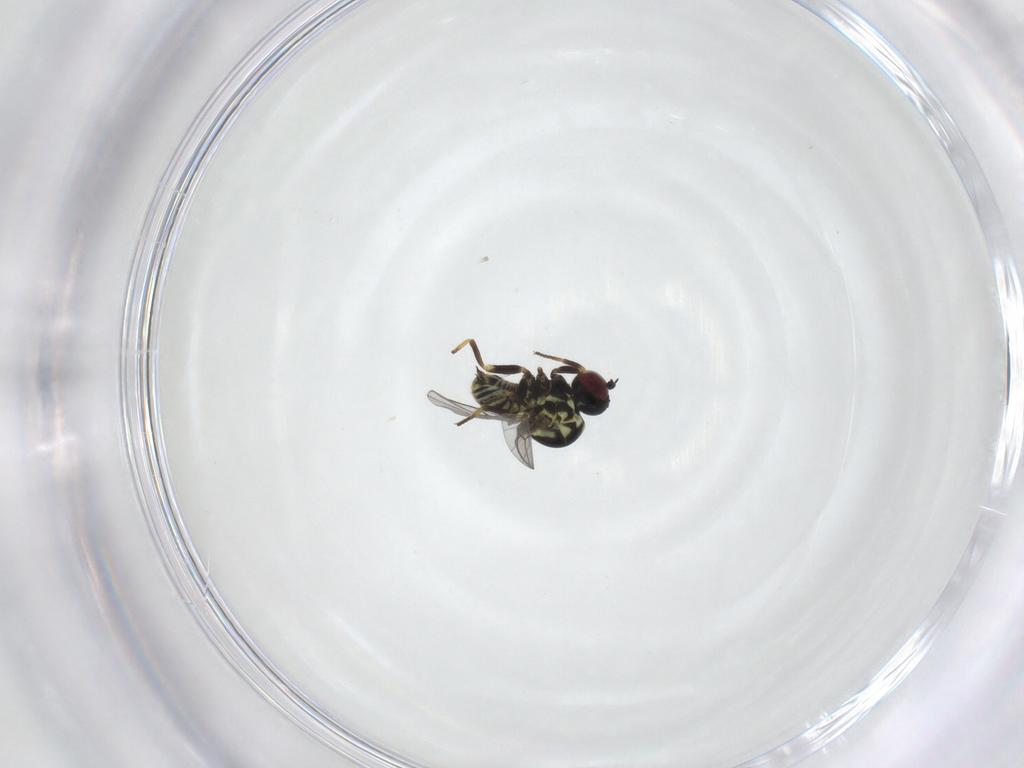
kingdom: Animalia
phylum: Arthropoda
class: Insecta
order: Diptera
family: Mythicomyiidae
